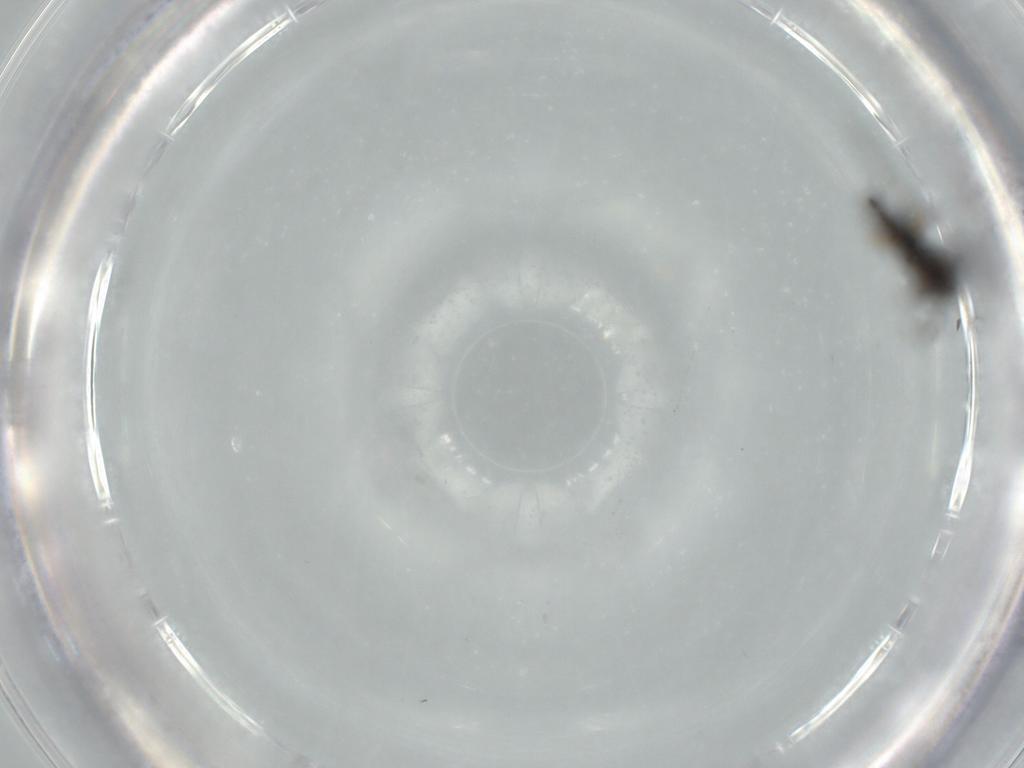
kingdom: Animalia
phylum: Arthropoda
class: Insecta
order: Diptera
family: Sciaridae
